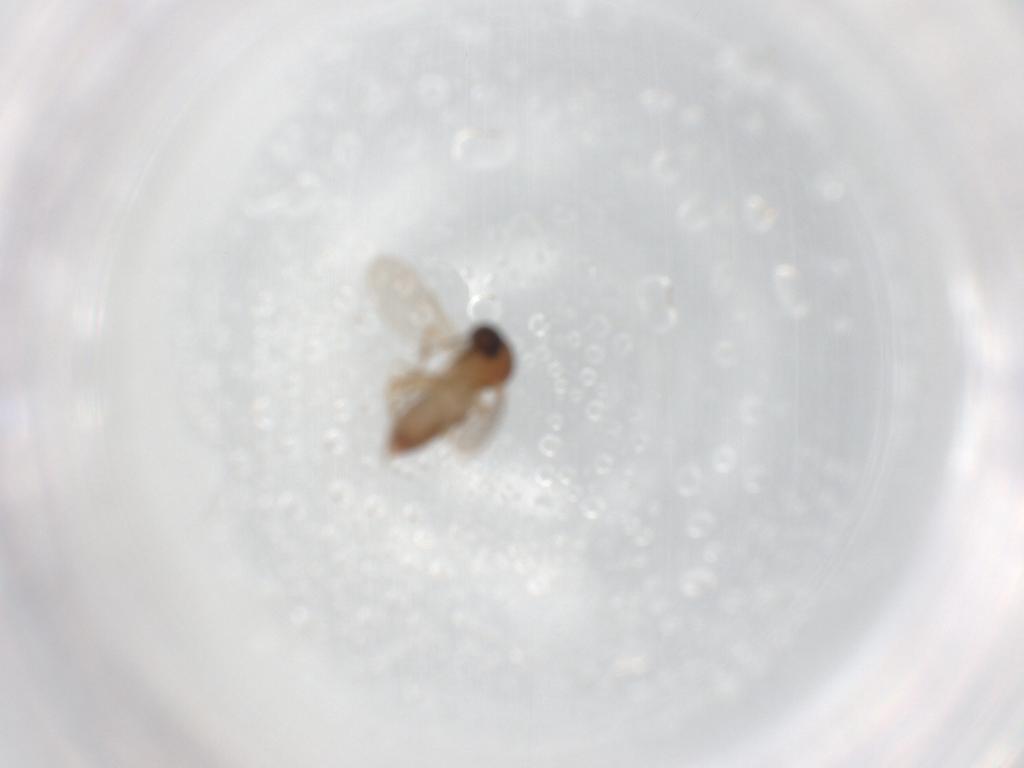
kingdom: Animalia
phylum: Arthropoda
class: Insecta
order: Diptera
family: Ceratopogonidae
